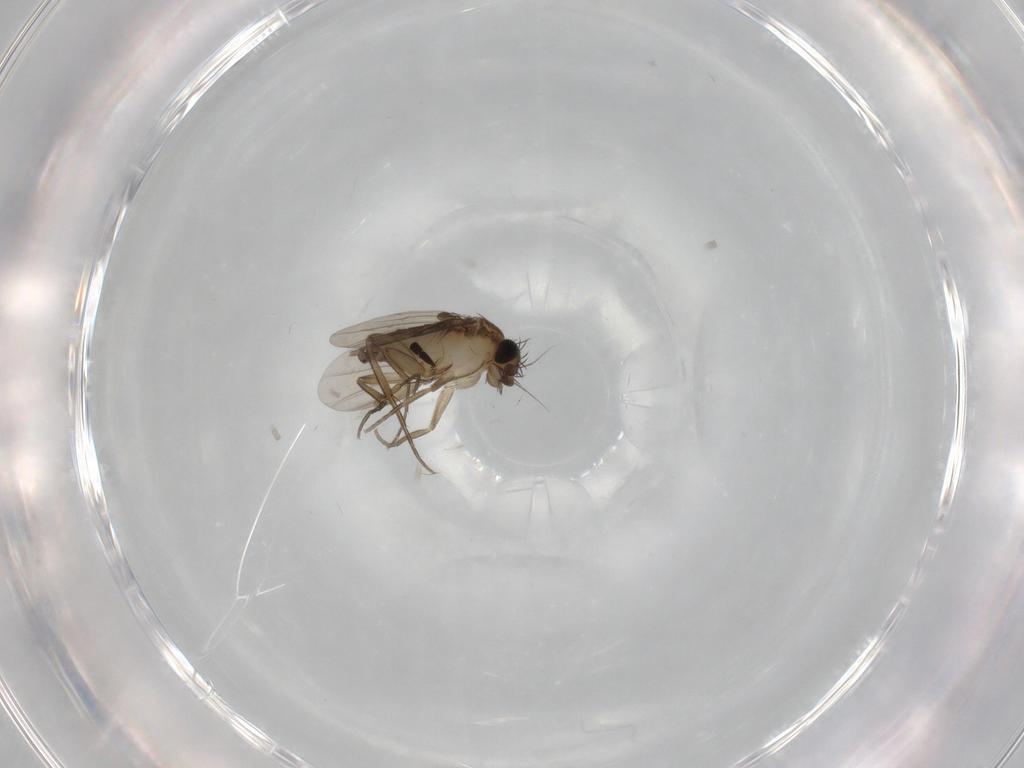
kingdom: Animalia
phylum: Arthropoda
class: Insecta
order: Diptera
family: Phoridae
